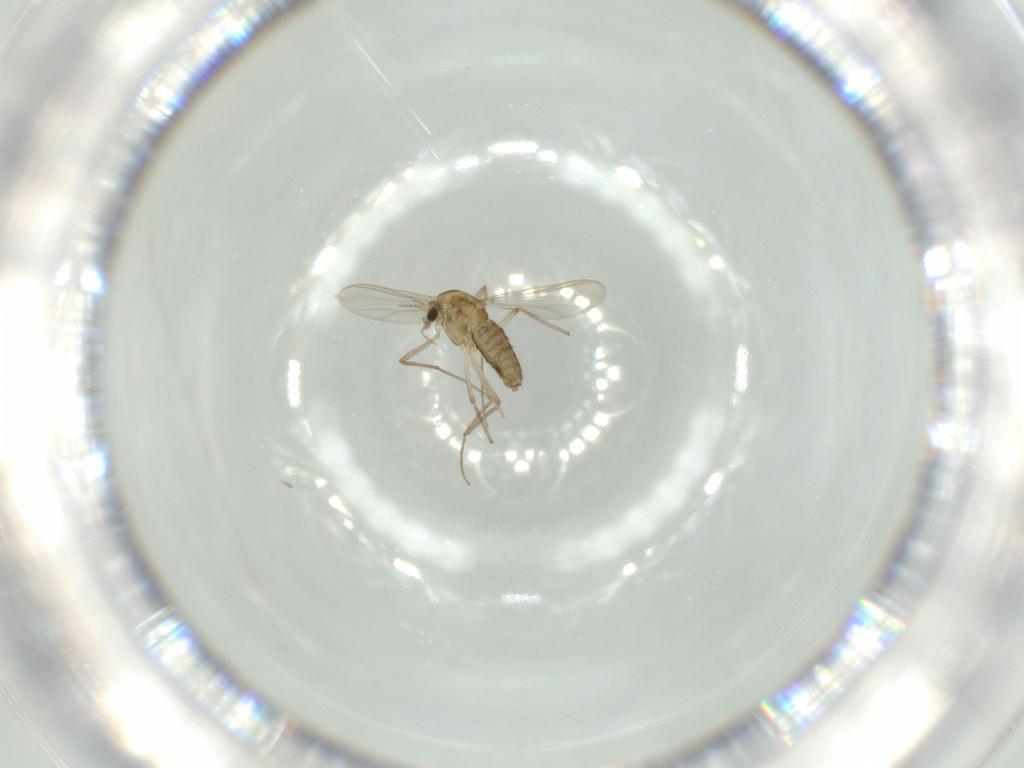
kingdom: Animalia
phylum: Arthropoda
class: Insecta
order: Diptera
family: Chironomidae
